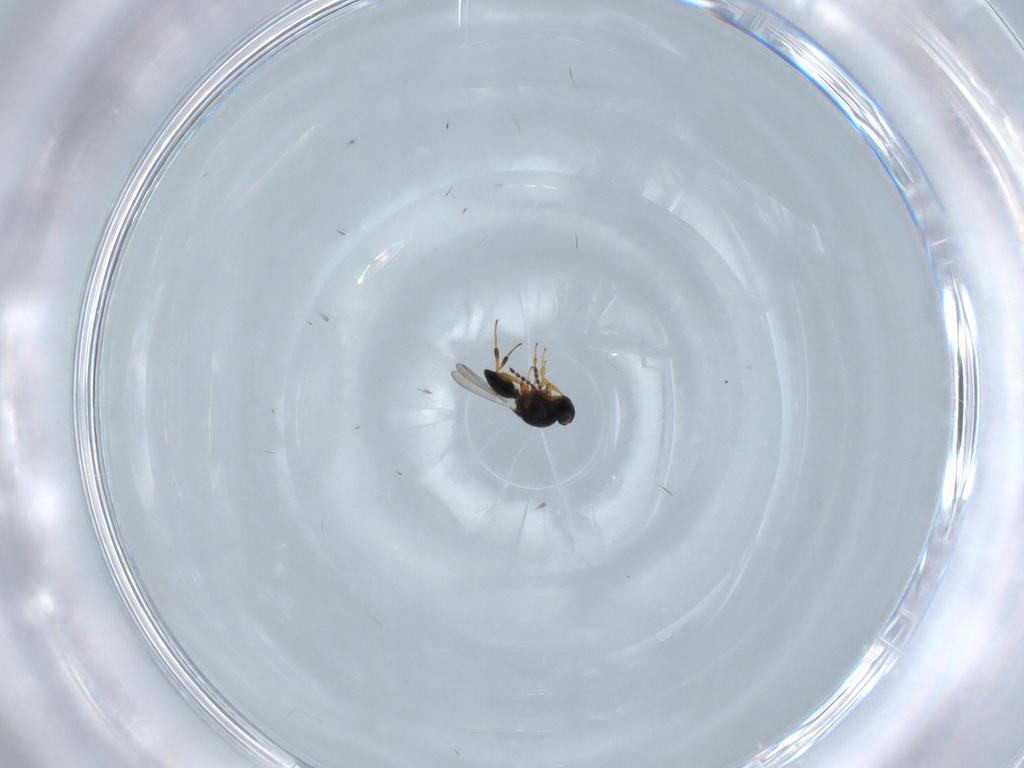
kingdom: Animalia
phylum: Arthropoda
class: Insecta
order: Hymenoptera
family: Platygastridae
